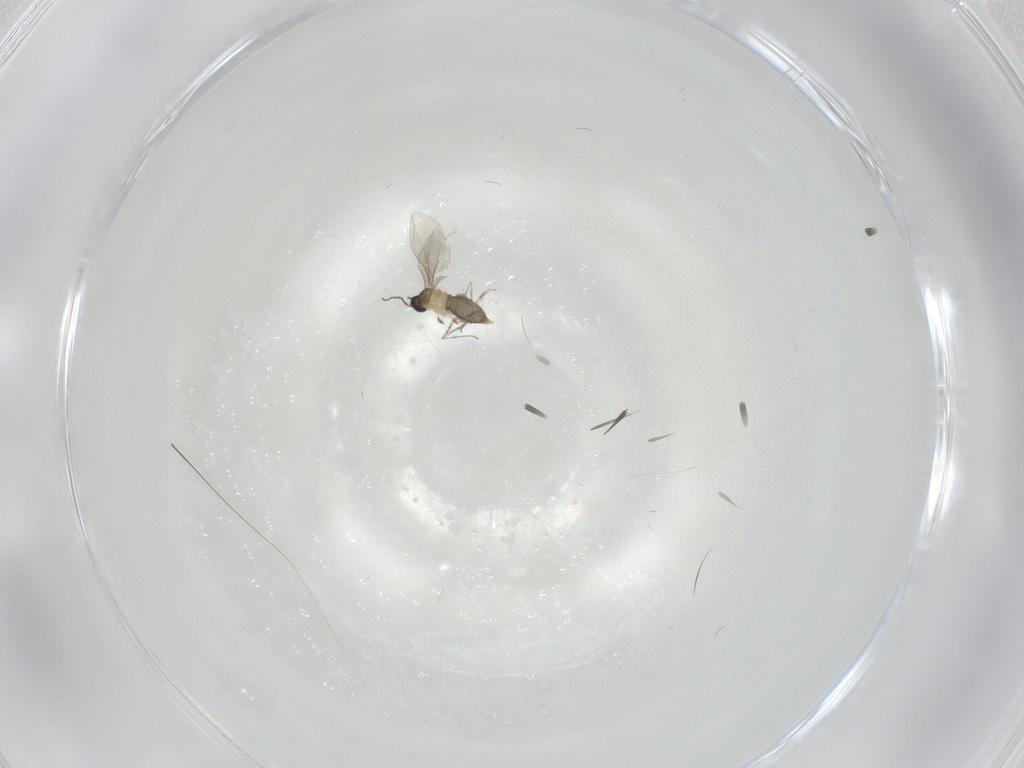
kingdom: Animalia
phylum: Arthropoda
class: Insecta
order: Diptera
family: Cecidomyiidae
